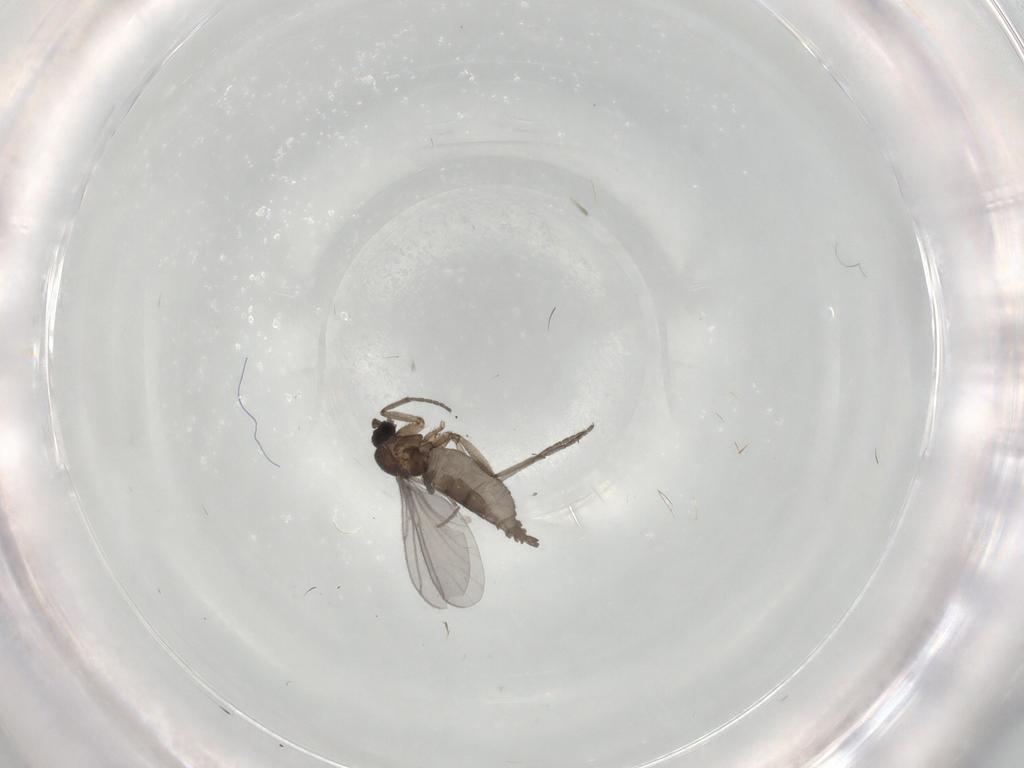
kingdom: Animalia
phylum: Arthropoda
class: Insecta
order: Diptera
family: Sciaridae
